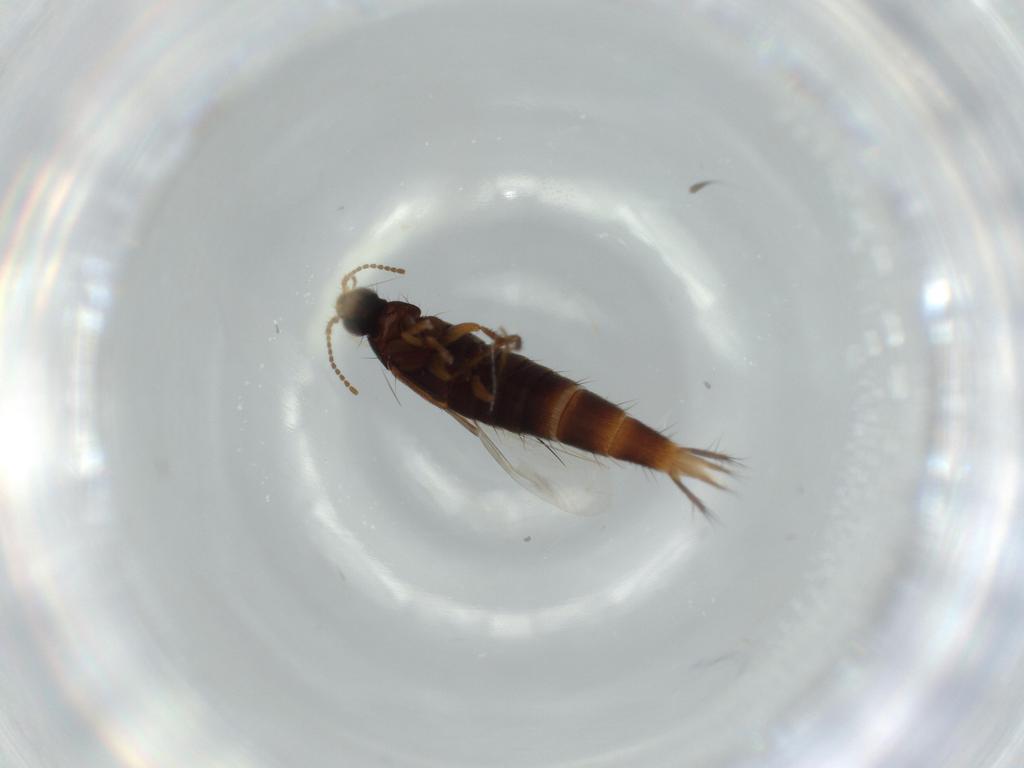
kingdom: Animalia
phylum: Arthropoda
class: Insecta
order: Coleoptera
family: Staphylinidae
